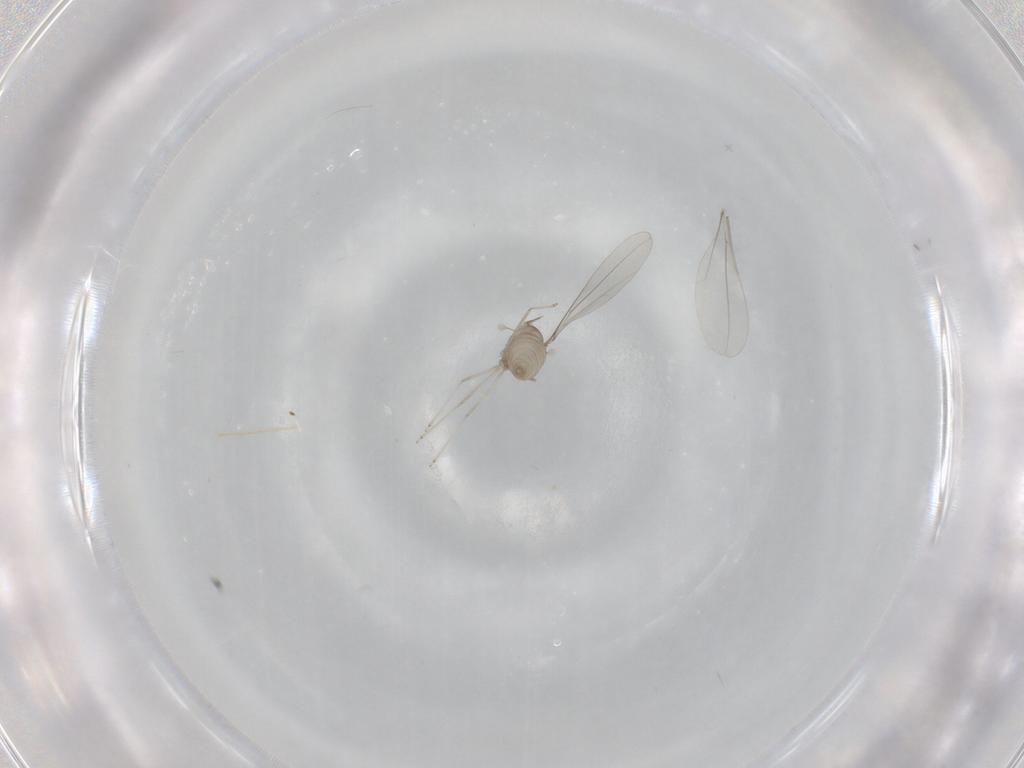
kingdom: Animalia
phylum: Arthropoda
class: Insecta
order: Diptera
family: Cecidomyiidae
